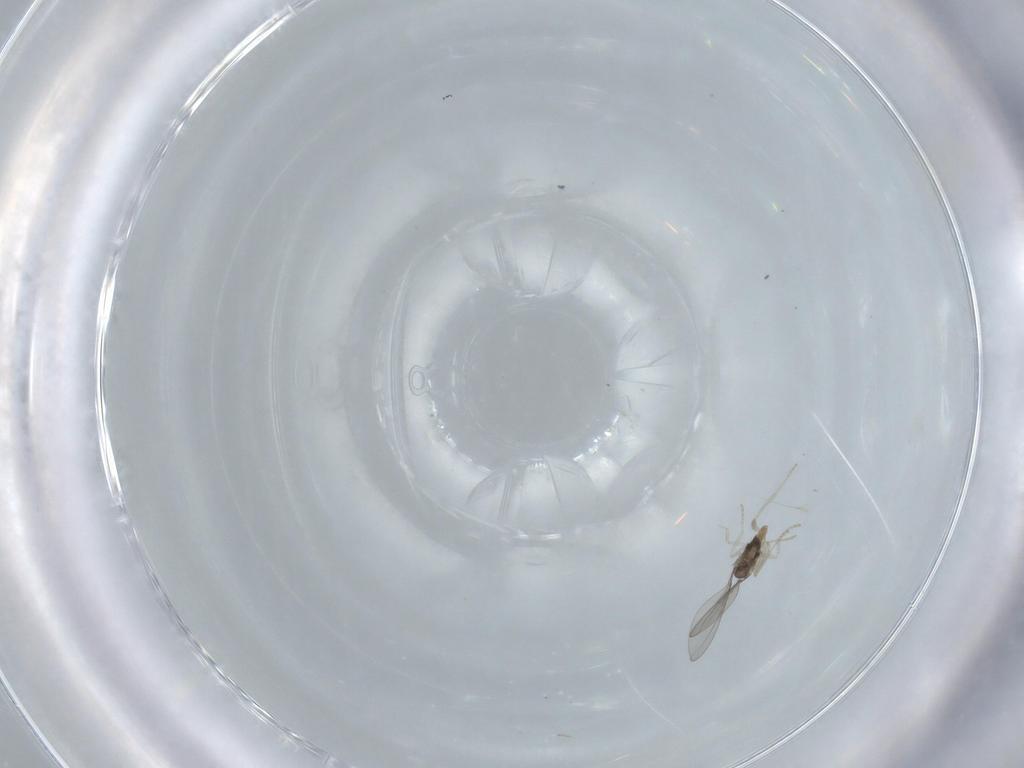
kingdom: Animalia
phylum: Arthropoda
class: Insecta
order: Diptera
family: Cecidomyiidae
